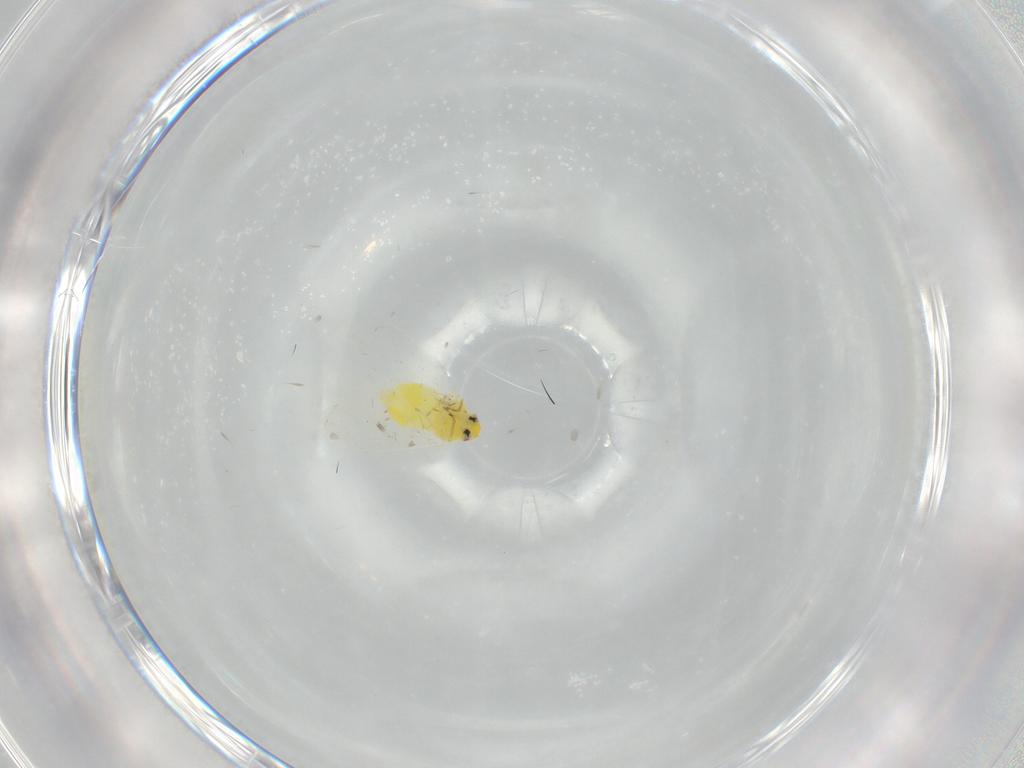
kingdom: Animalia
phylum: Arthropoda
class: Insecta
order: Hemiptera
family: Aleyrodidae
